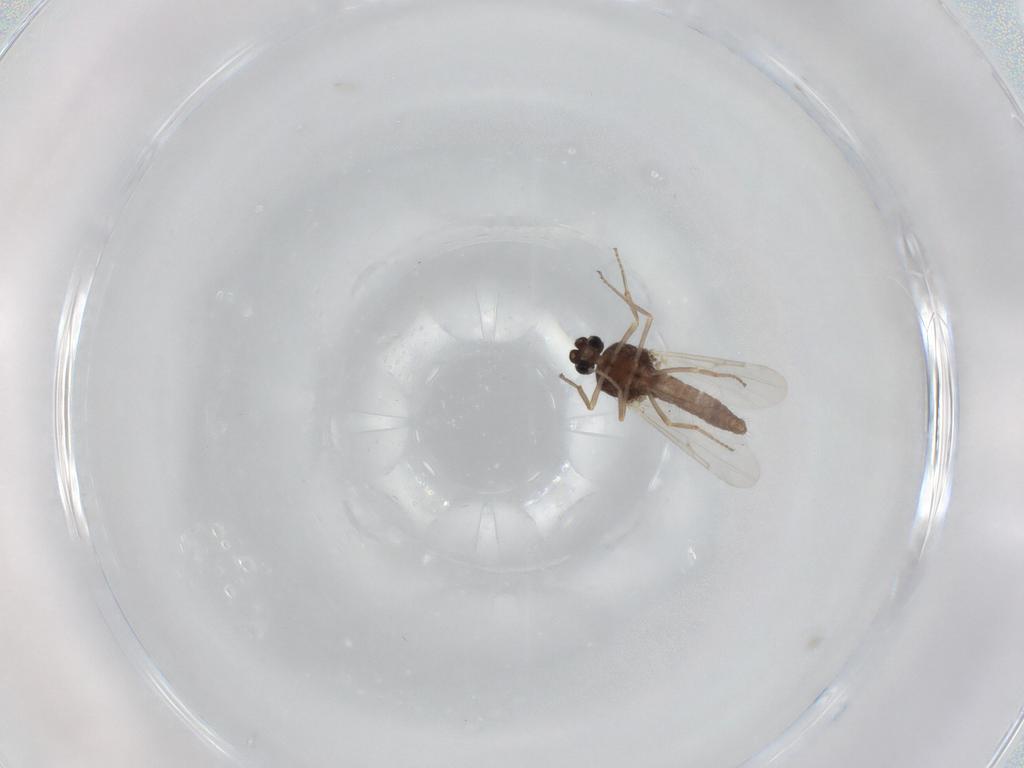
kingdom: Animalia
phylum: Arthropoda
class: Insecta
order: Diptera
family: Ceratopogonidae
